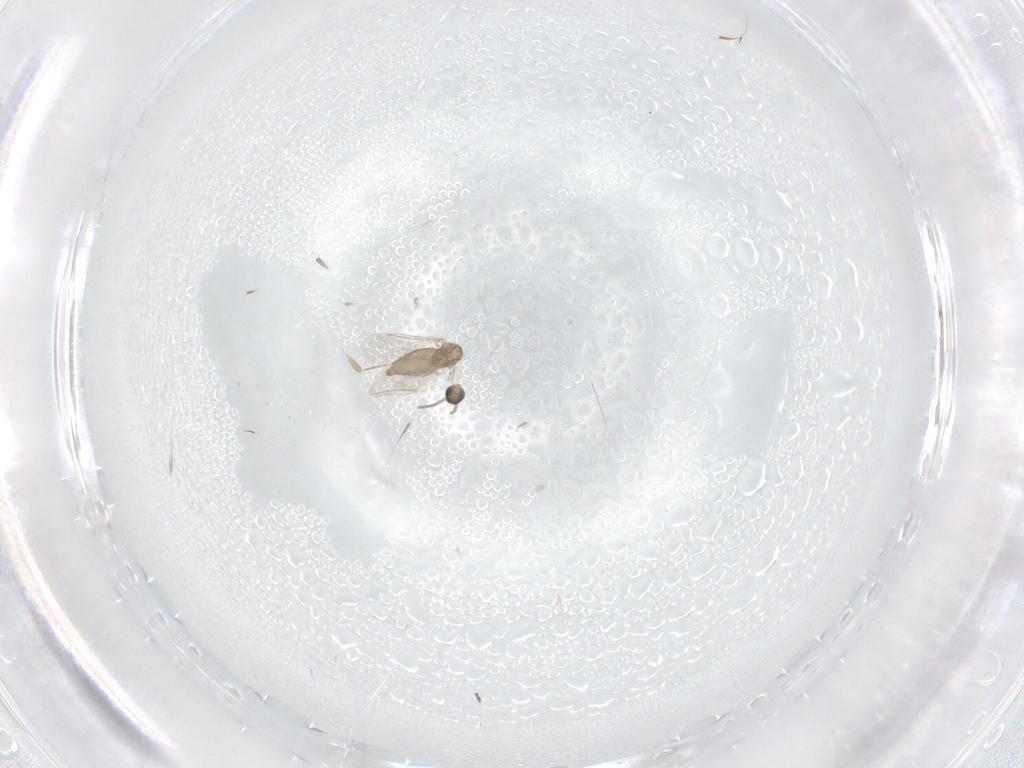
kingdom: Animalia
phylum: Arthropoda
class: Insecta
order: Diptera
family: Cecidomyiidae
